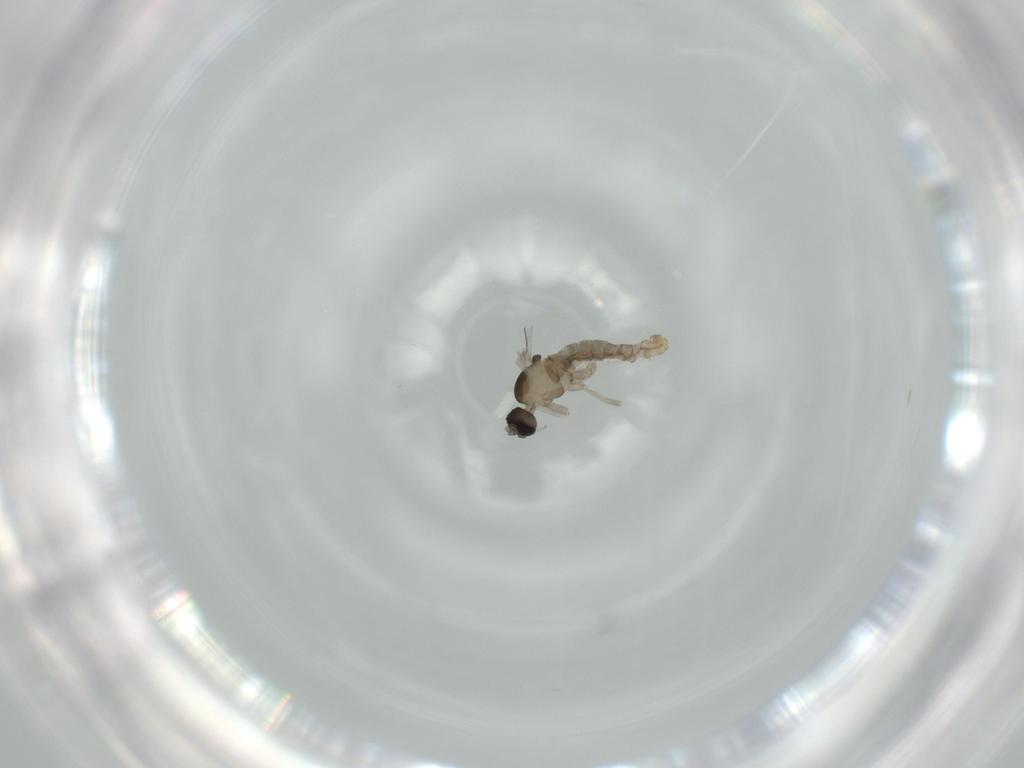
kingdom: Animalia
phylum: Arthropoda
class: Insecta
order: Diptera
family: Cecidomyiidae
